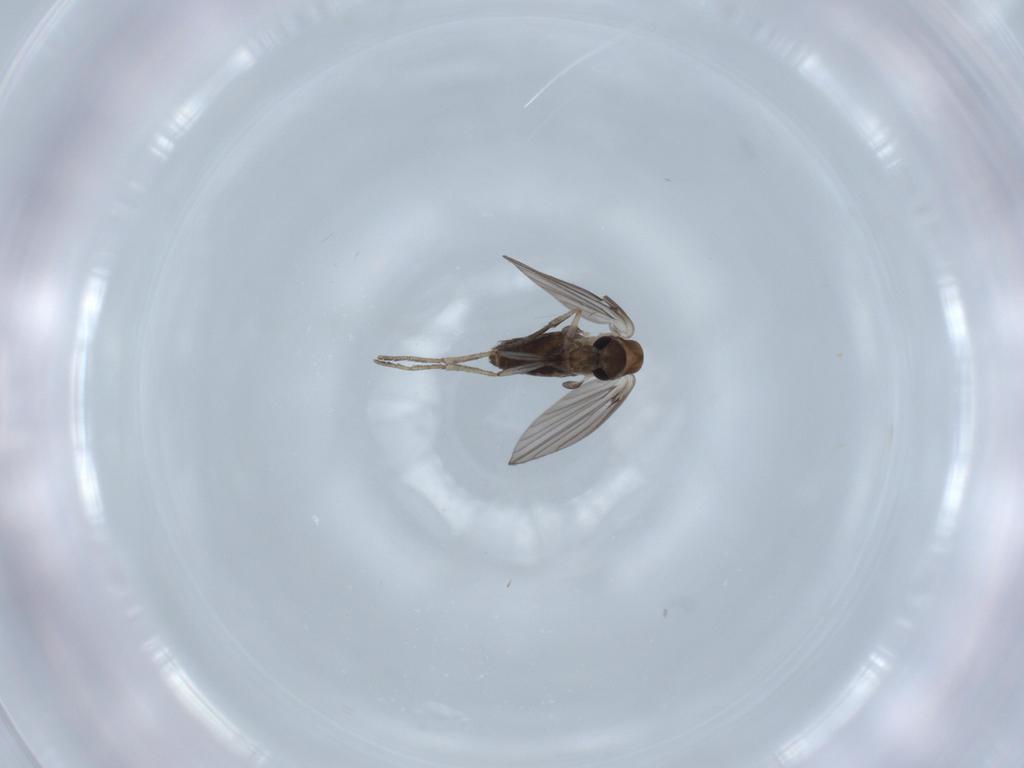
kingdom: Animalia
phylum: Arthropoda
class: Insecta
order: Diptera
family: Psychodidae
